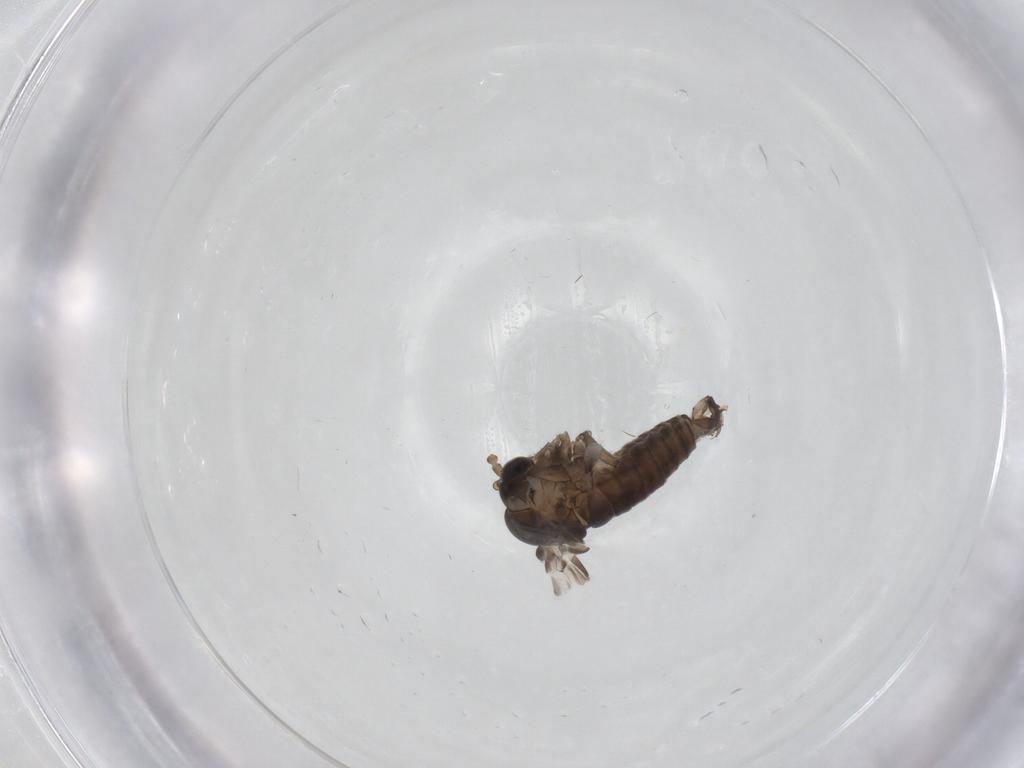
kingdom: Animalia
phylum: Arthropoda
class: Insecta
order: Diptera
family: Psychodidae
